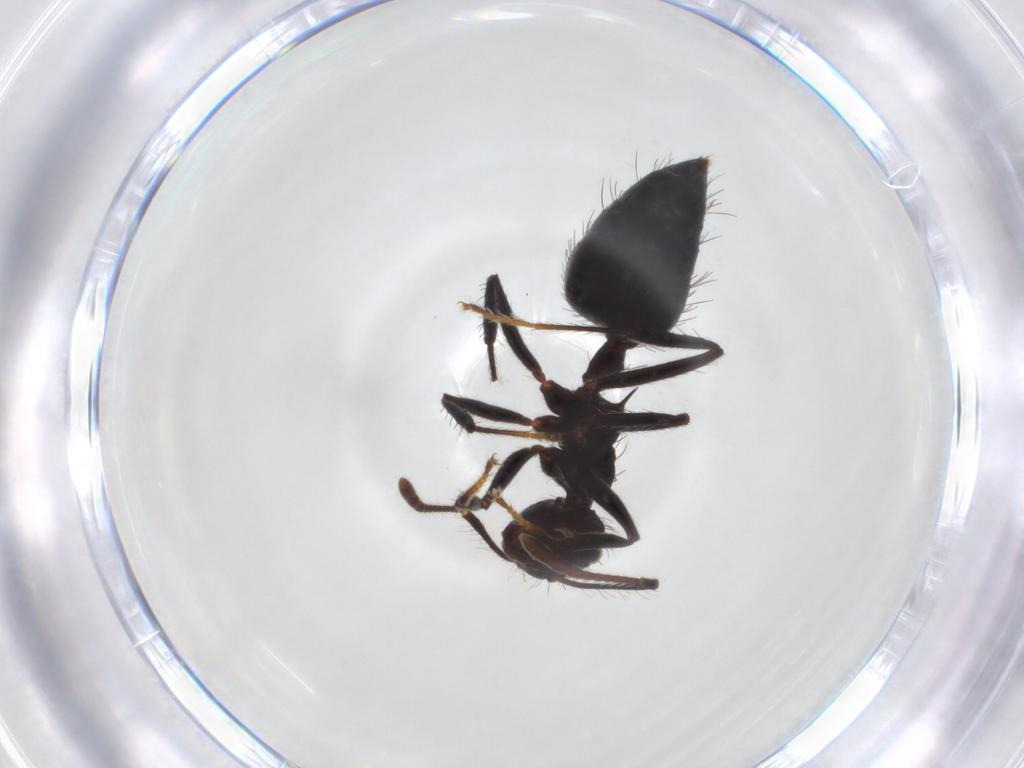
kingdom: Animalia
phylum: Arthropoda
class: Insecta
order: Hymenoptera
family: Formicidae
